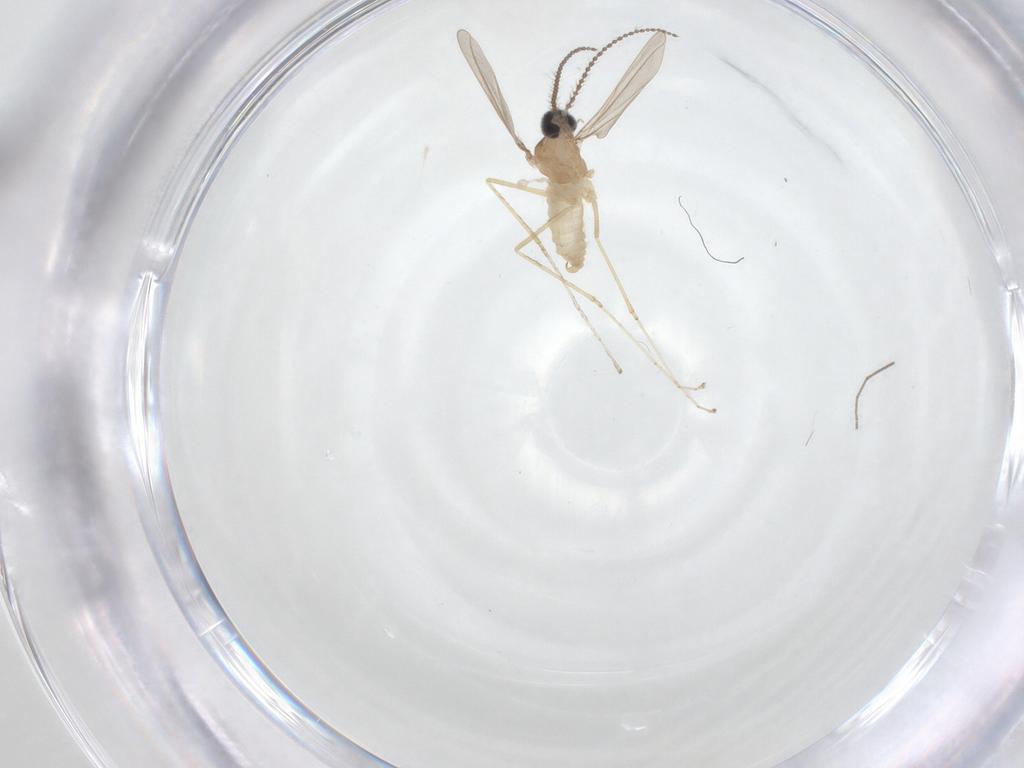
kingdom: Animalia
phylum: Arthropoda
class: Insecta
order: Diptera
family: Cecidomyiidae
